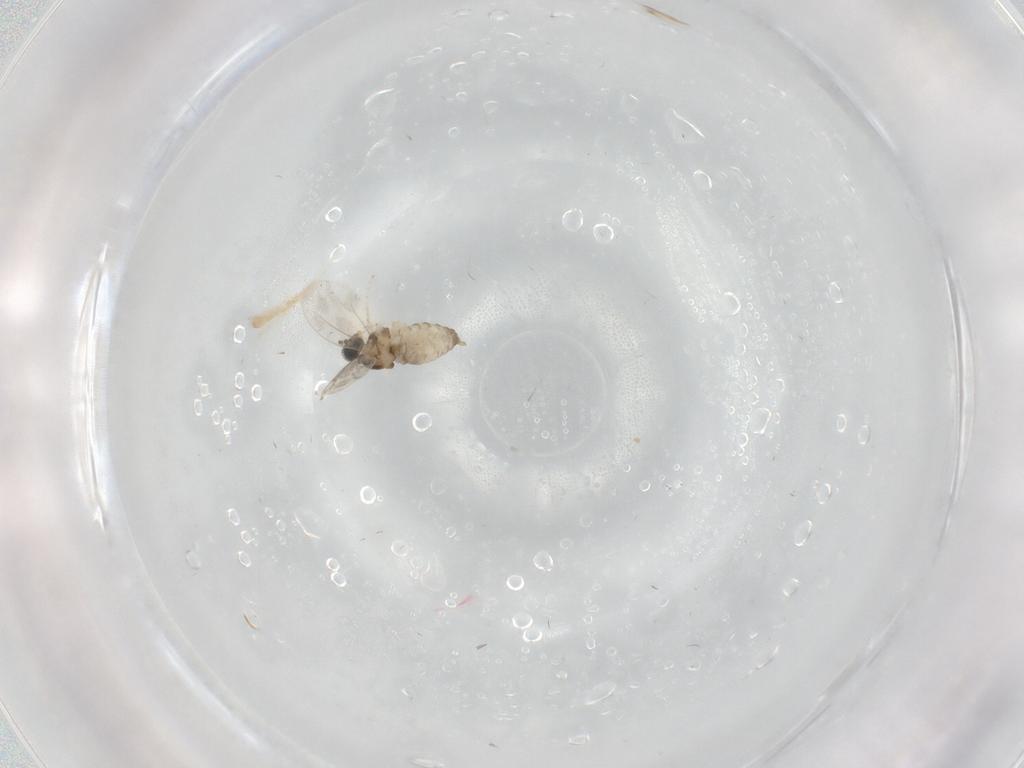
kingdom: Animalia
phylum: Arthropoda
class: Insecta
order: Diptera
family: Cecidomyiidae
